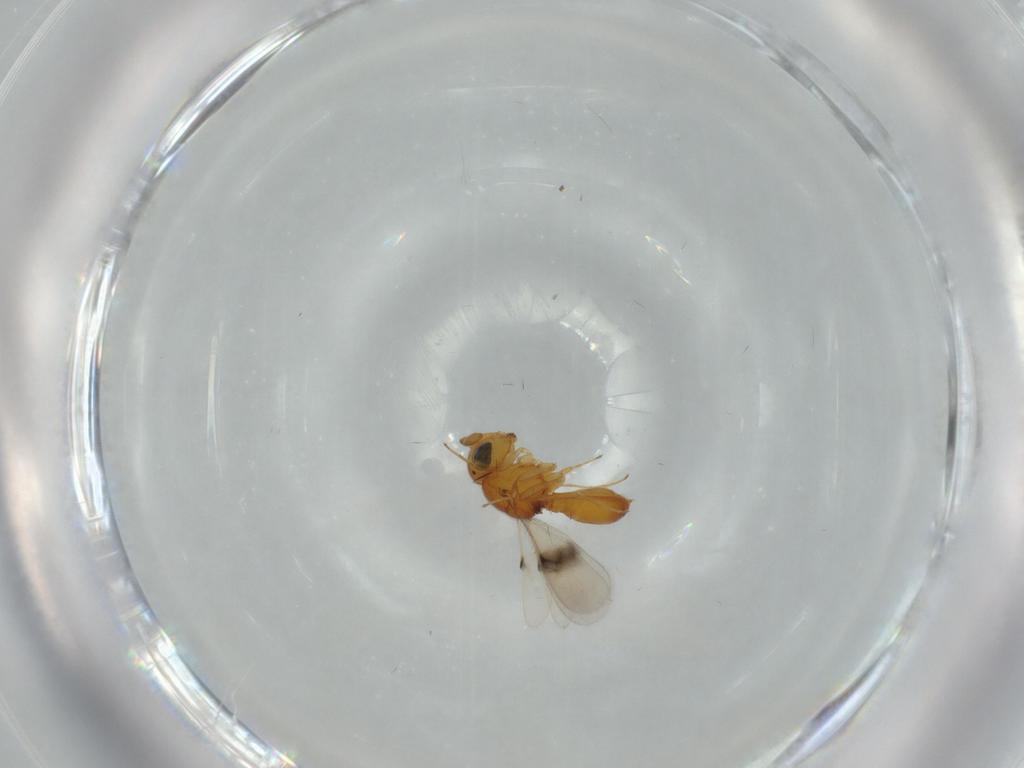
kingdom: Animalia
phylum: Arthropoda
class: Insecta
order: Hymenoptera
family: Scelionidae
